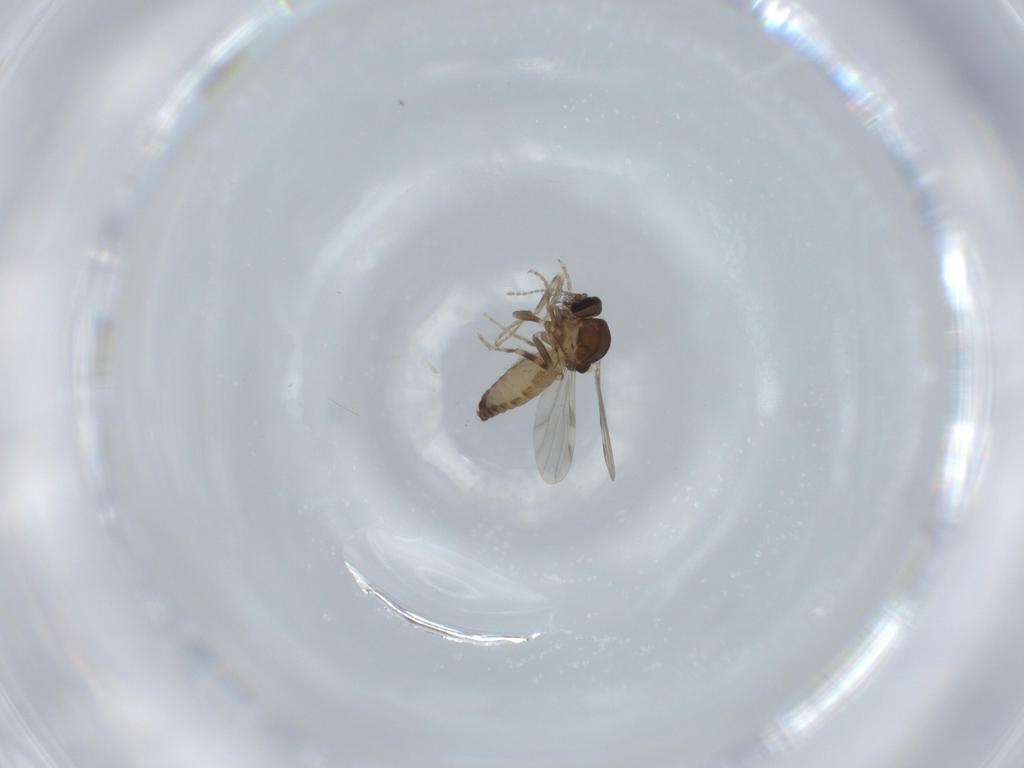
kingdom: Animalia
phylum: Arthropoda
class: Insecta
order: Diptera
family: Ceratopogonidae
